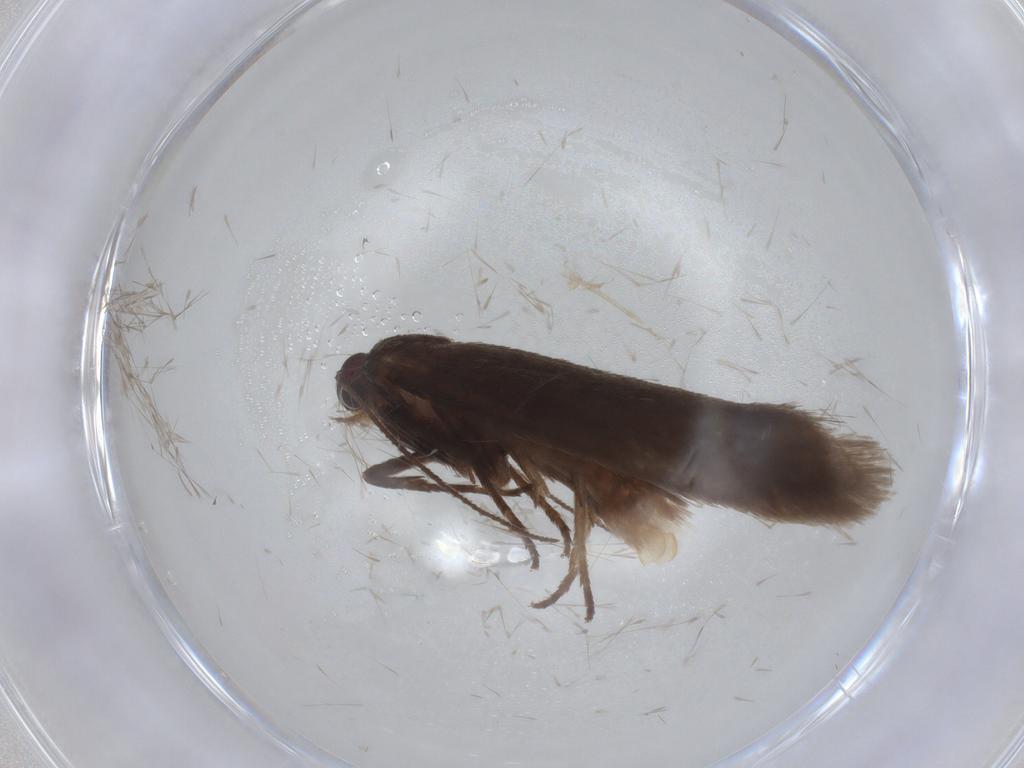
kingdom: Animalia
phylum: Arthropoda
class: Insecta
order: Lepidoptera
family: Limacodidae
